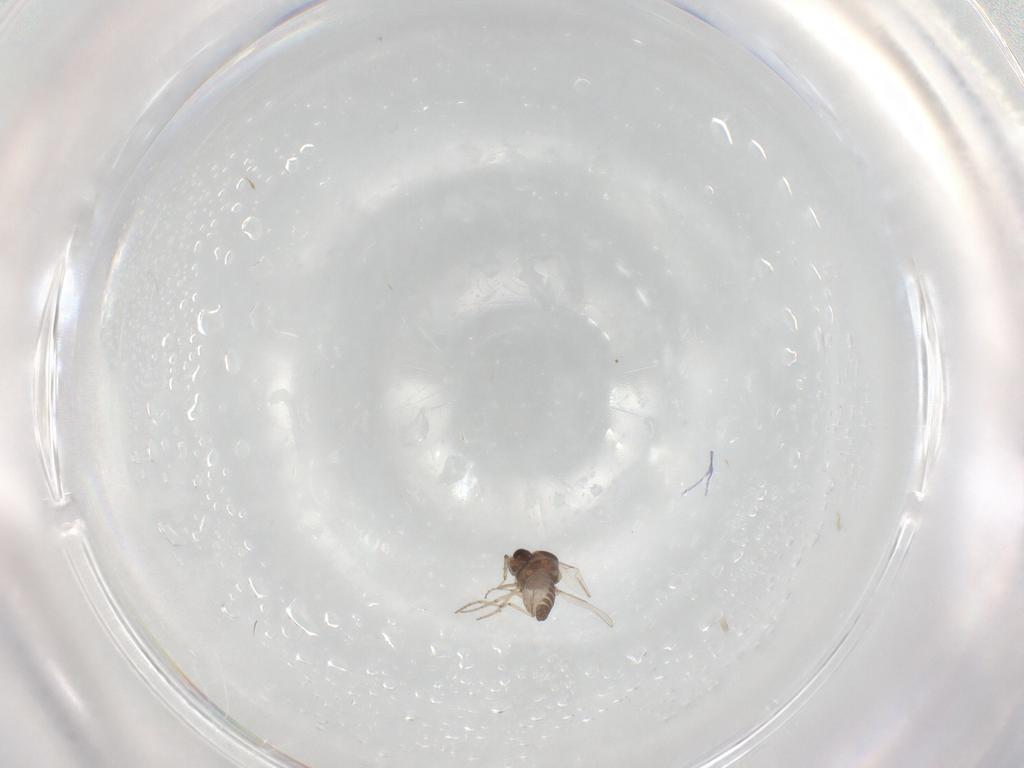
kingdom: Animalia
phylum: Arthropoda
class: Insecta
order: Diptera
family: Ceratopogonidae
